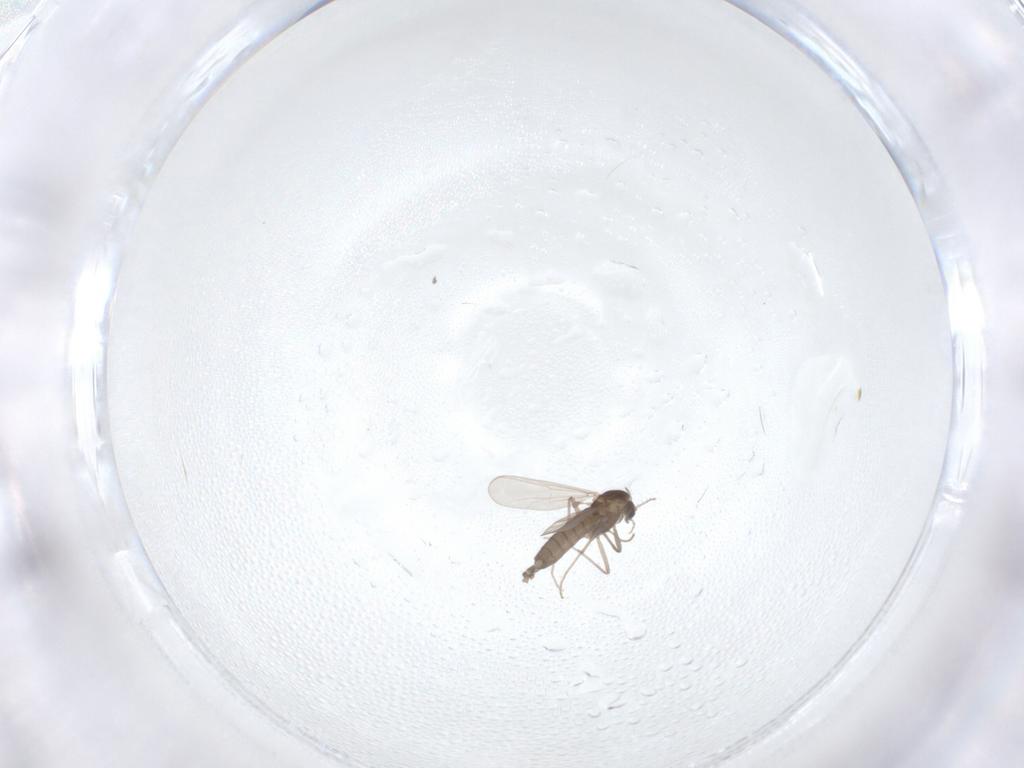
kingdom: Animalia
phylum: Arthropoda
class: Insecta
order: Diptera
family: Chironomidae
